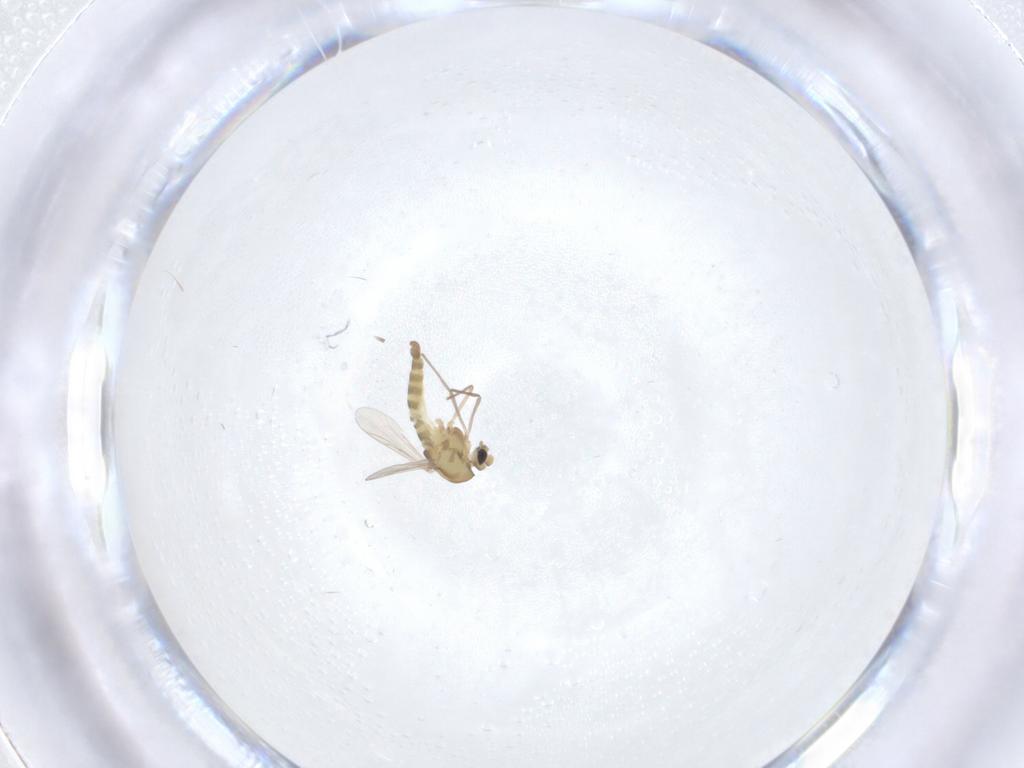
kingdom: Animalia
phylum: Arthropoda
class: Insecta
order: Diptera
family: Chironomidae
